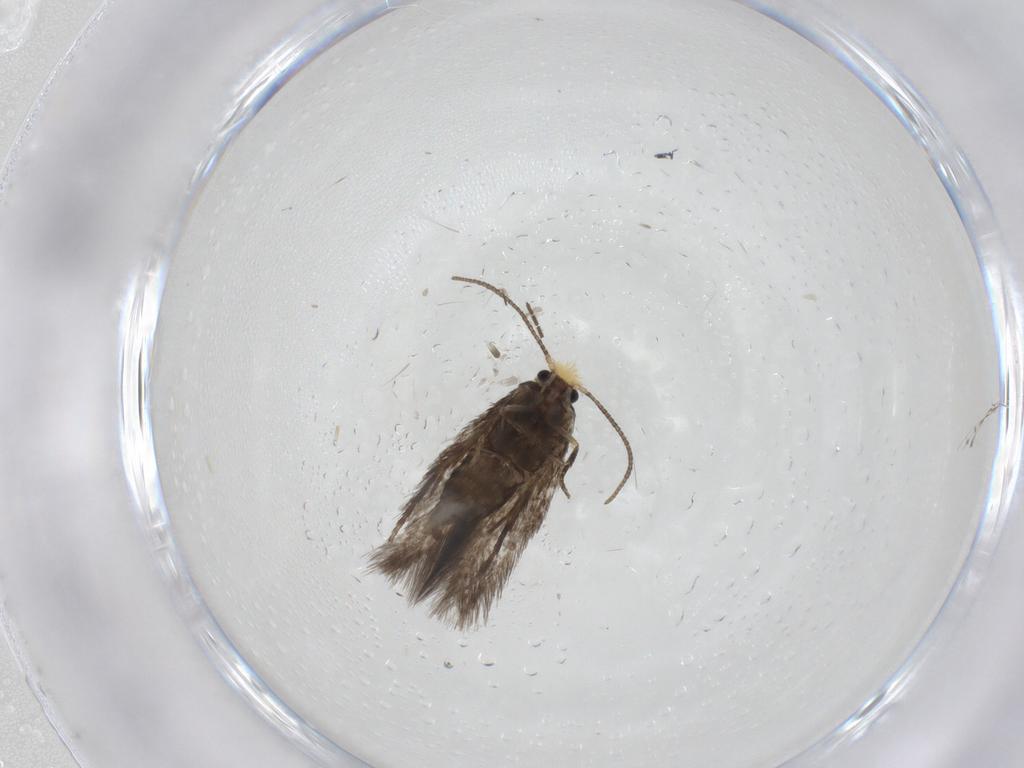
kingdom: Animalia
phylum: Arthropoda
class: Insecta
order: Lepidoptera
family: Nepticulidae
